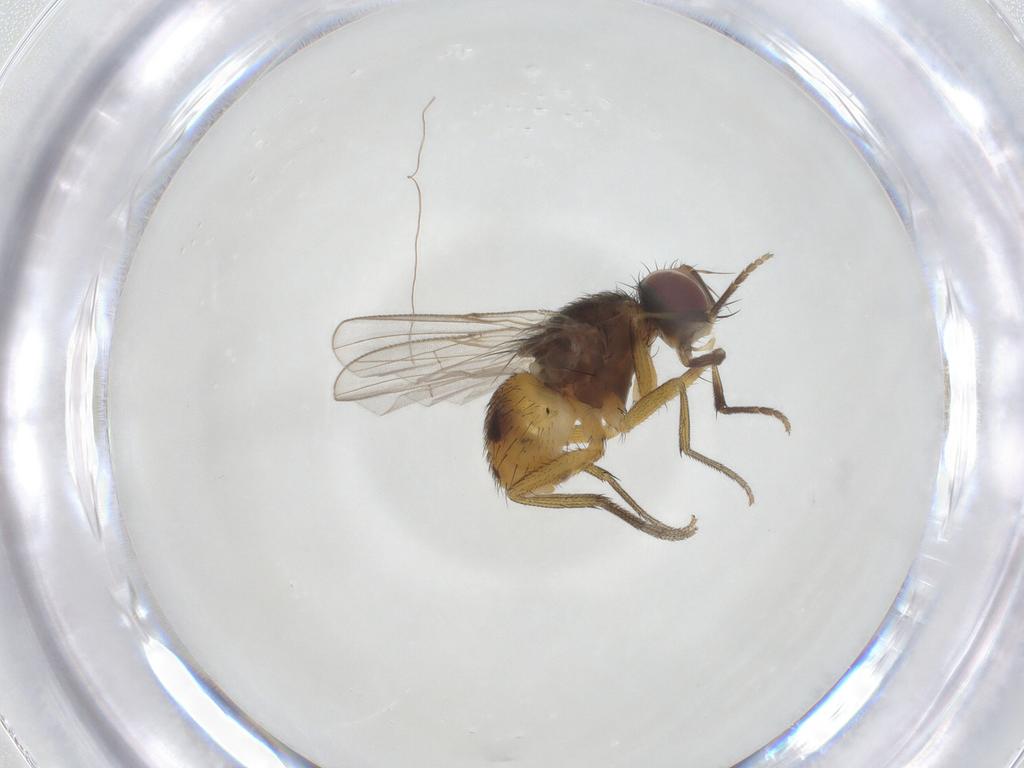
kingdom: Animalia
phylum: Arthropoda
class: Insecta
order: Diptera
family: Muscidae
